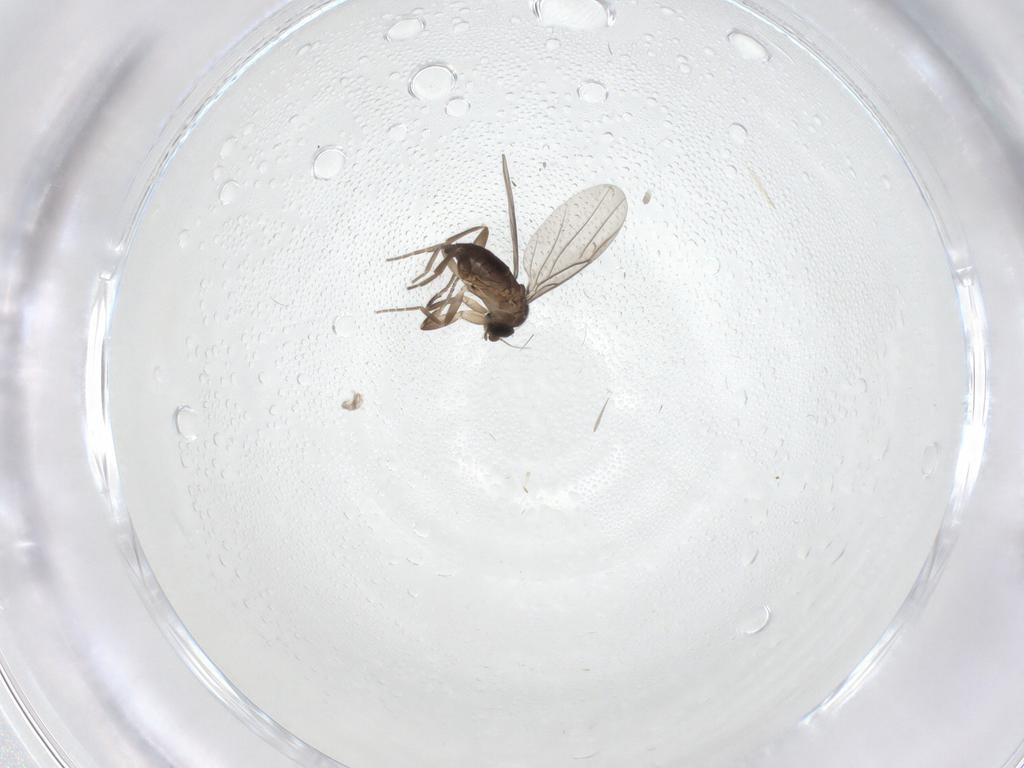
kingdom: Animalia
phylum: Arthropoda
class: Insecta
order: Diptera
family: Phoridae
